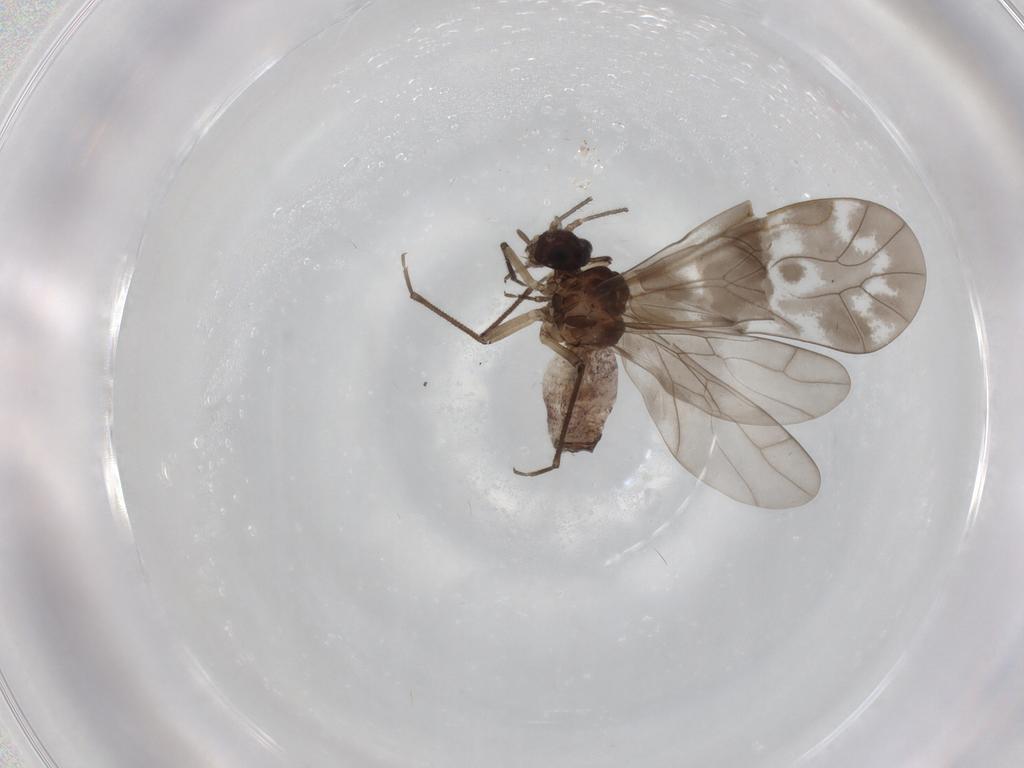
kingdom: Animalia
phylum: Arthropoda
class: Insecta
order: Psocodea
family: Peripsocidae
